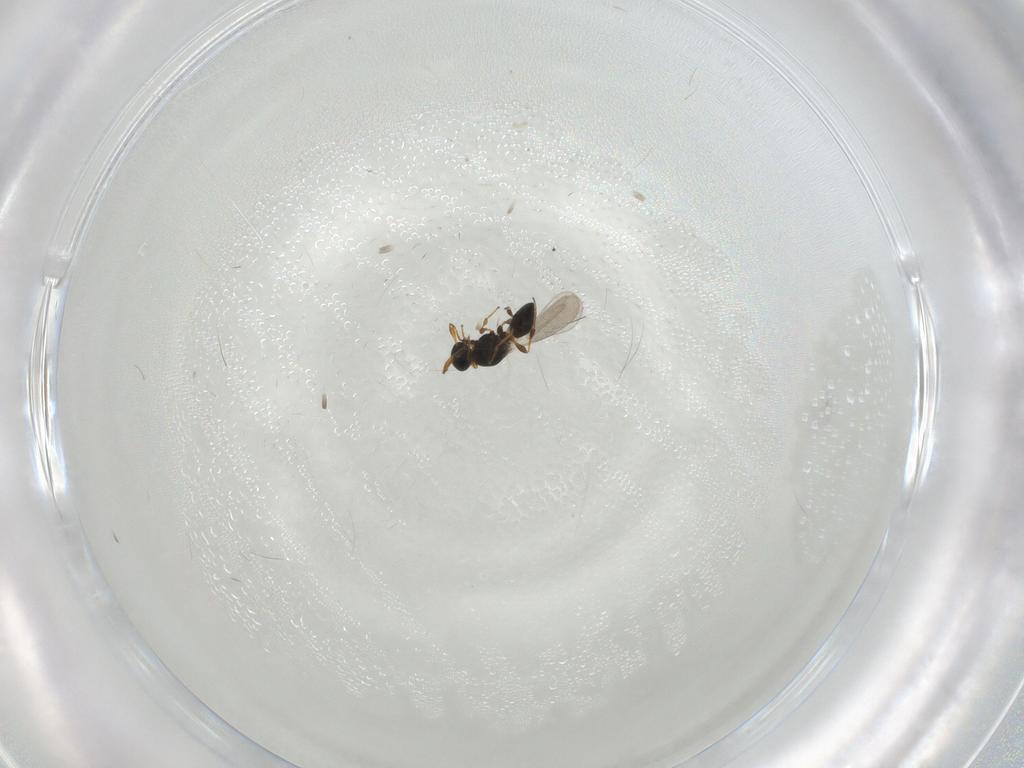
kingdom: Animalia
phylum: Arthropoda
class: Insecta
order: Hymenoptera
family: Platygastridae
